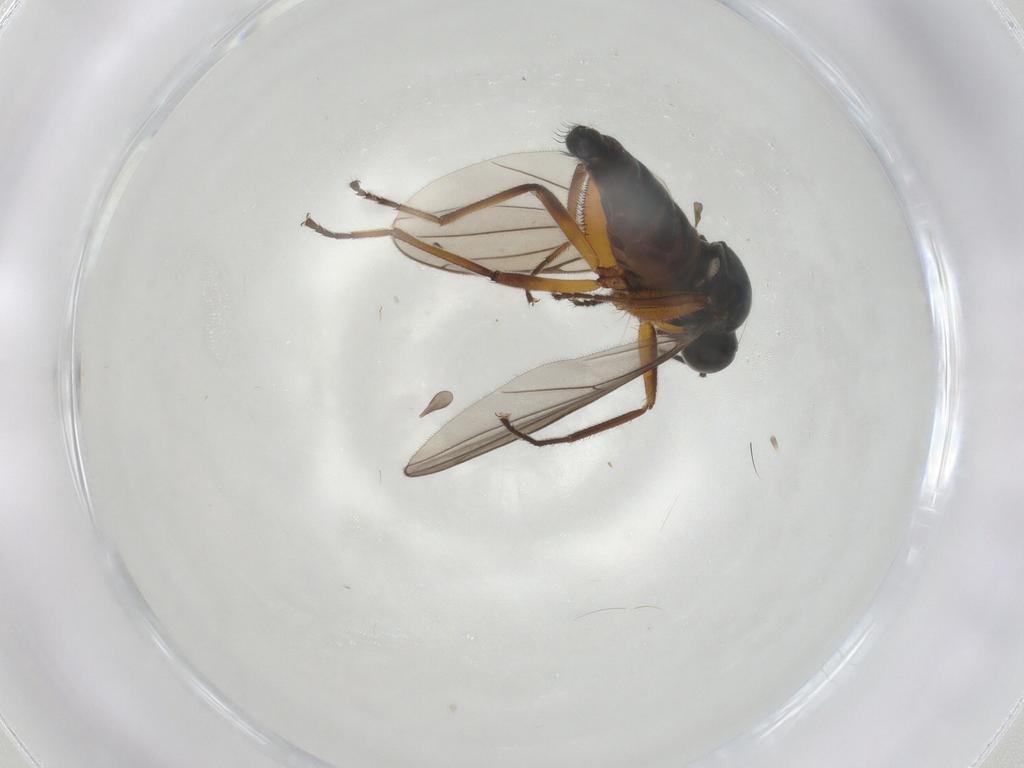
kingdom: Animalia
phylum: Arthropoda
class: Insecta
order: Diptera
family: Hybotidae
